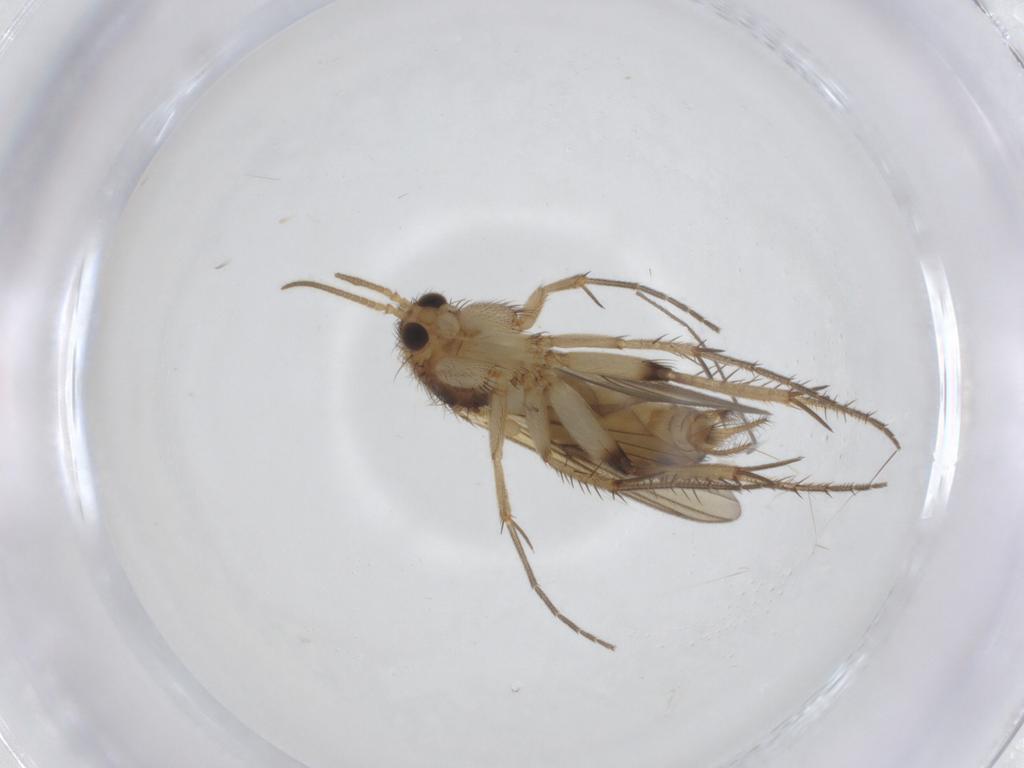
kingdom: Animalia
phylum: Arthropoda
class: Insecta
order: Diptera
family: Mycetophilidae
